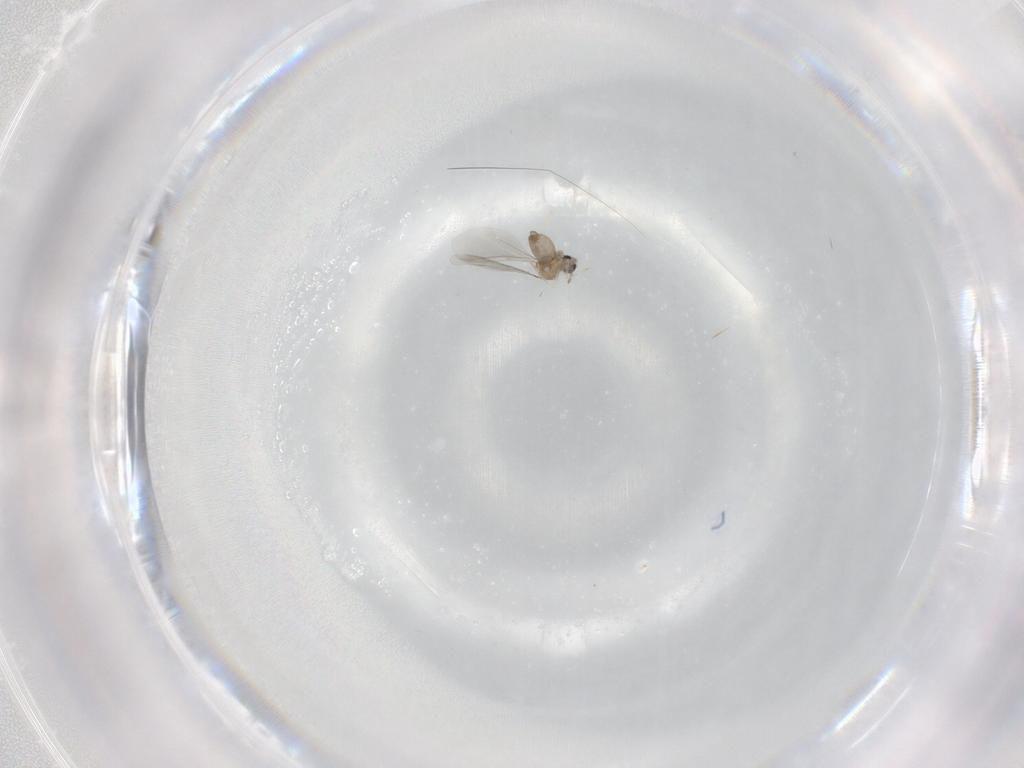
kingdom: Animalia
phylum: Arthropoda
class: Insecta
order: Diptera
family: Cecidomyiidae
